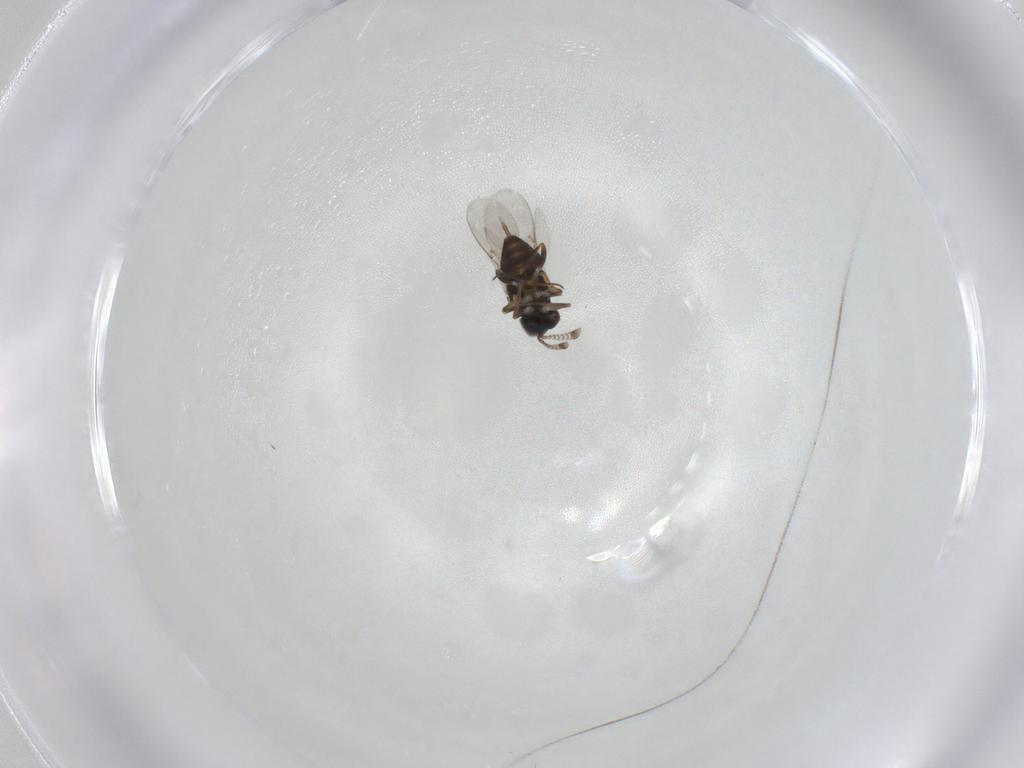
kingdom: Animalia
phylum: Arthropoda
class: Insecta
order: Hymenoptera
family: Encyrtidae
